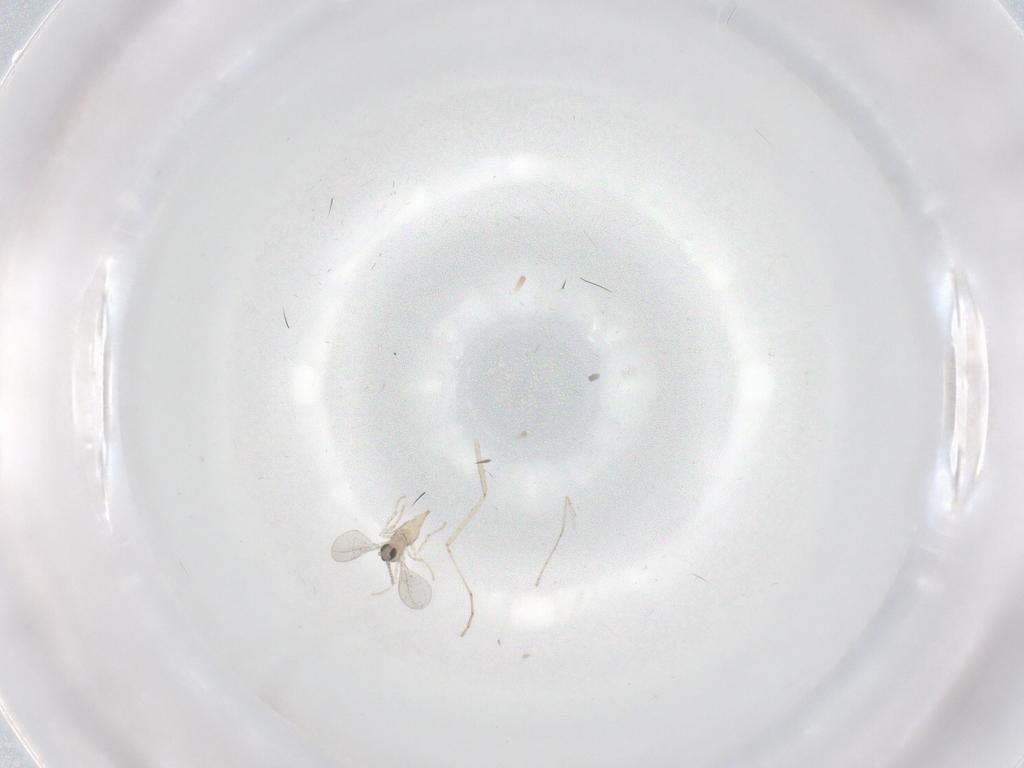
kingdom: Animalia
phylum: Arthropoda
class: Insecta
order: Diptera
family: Cecidomyiidae
